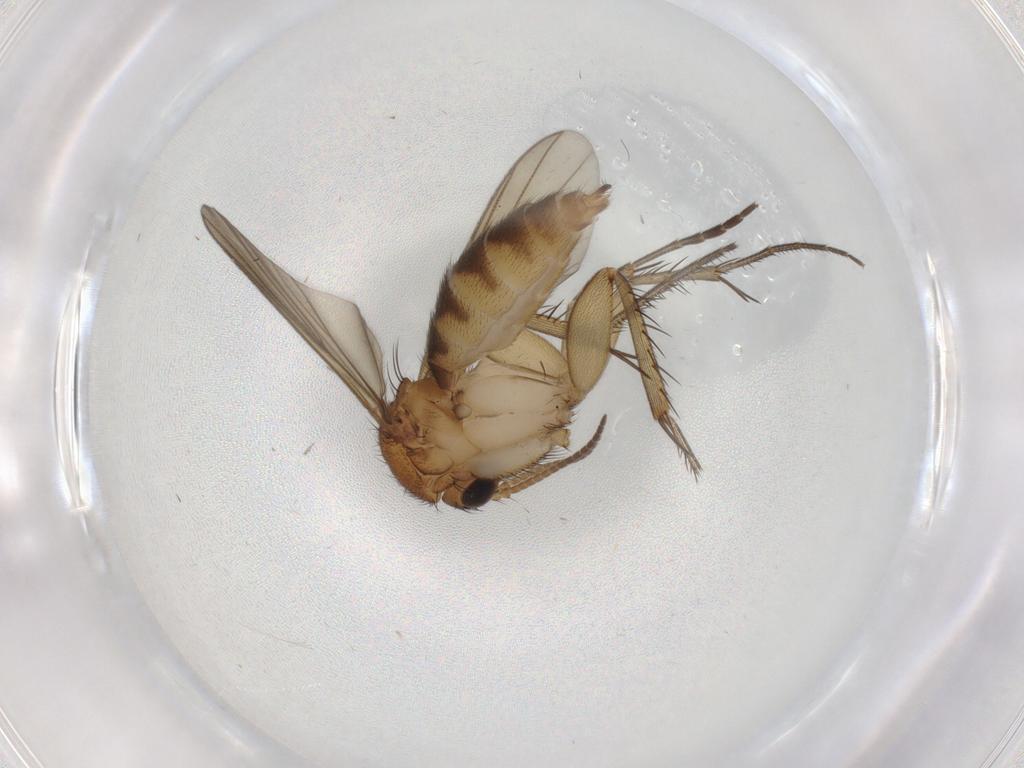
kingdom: Animalia
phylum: Arthropoda
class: Insecta
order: Diptera
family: Mycetophilidae
